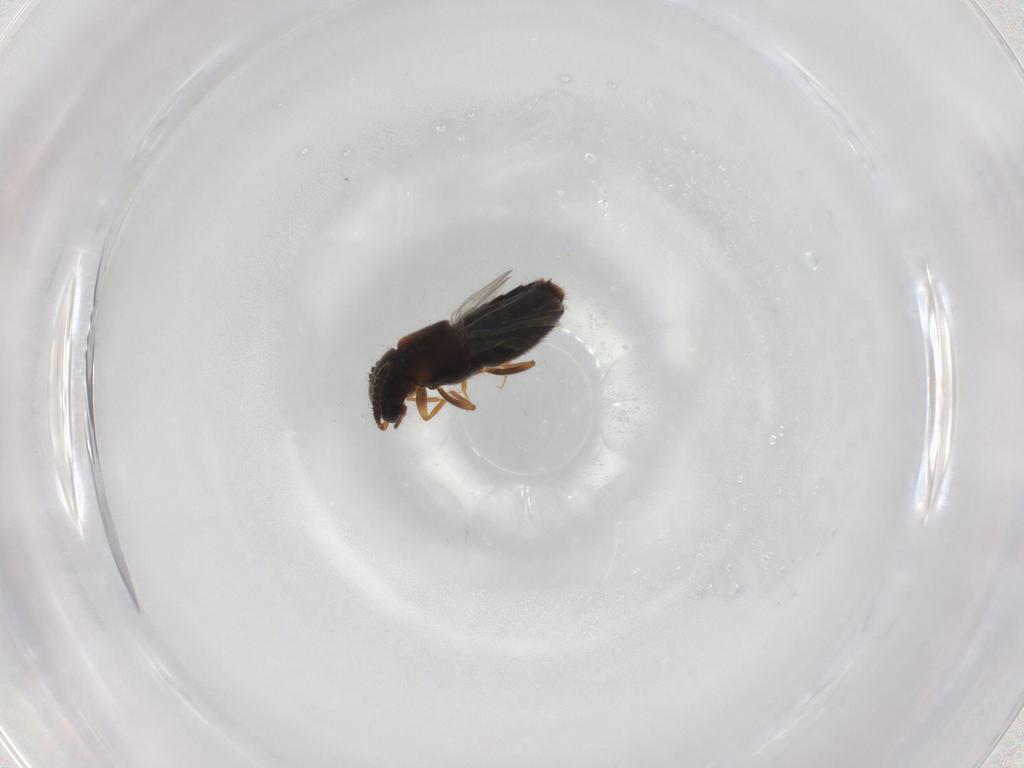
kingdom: Animalia
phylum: Arthropoda
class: Insecta
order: Coleoptera
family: Staphylinidae
